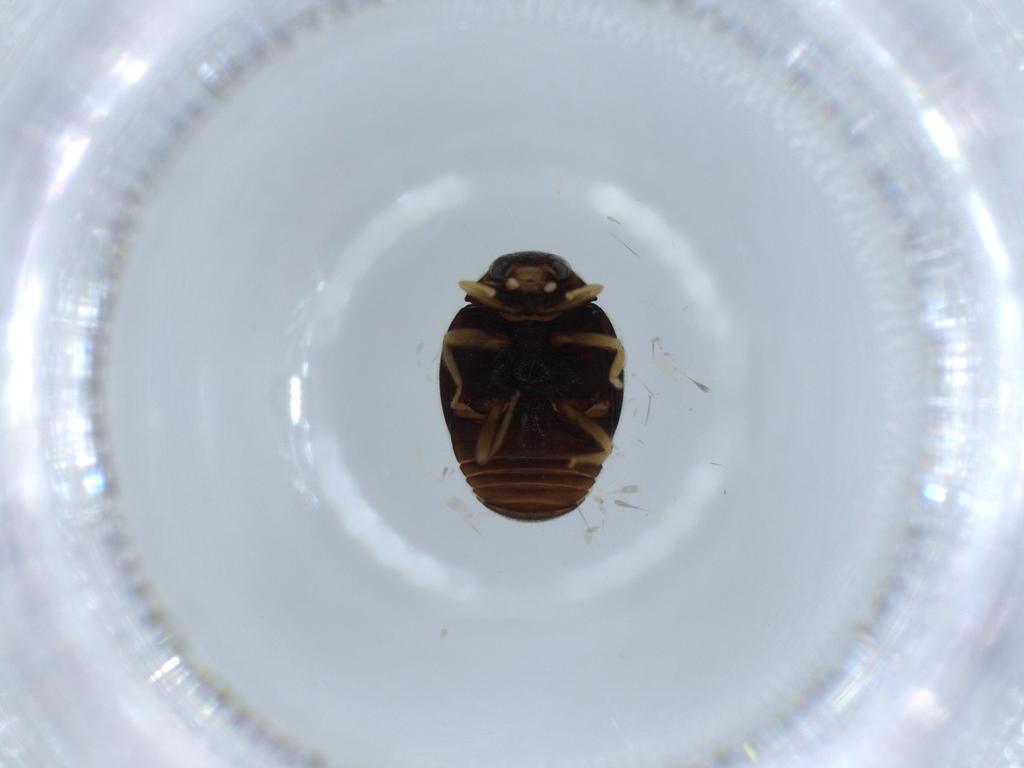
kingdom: Animalia
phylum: Arthropoda
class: Insecta
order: Coleoptera
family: Coccinellidae
